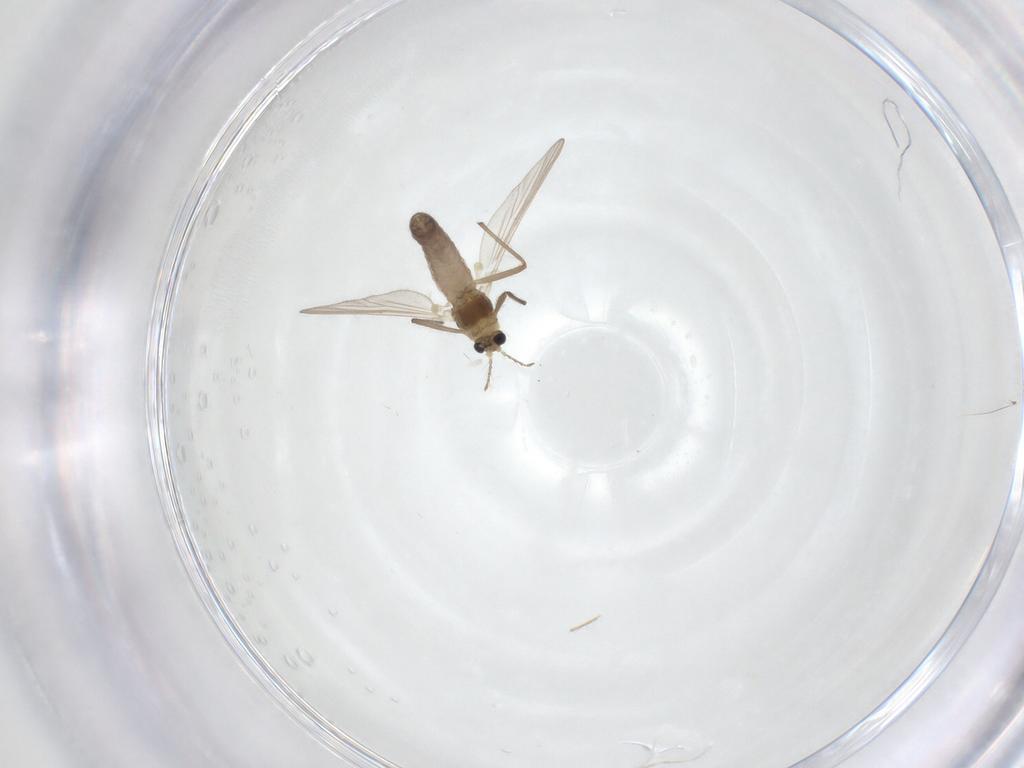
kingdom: Animalia
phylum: Arthropoda
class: Insecta
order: Diptera
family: Chironomidae
